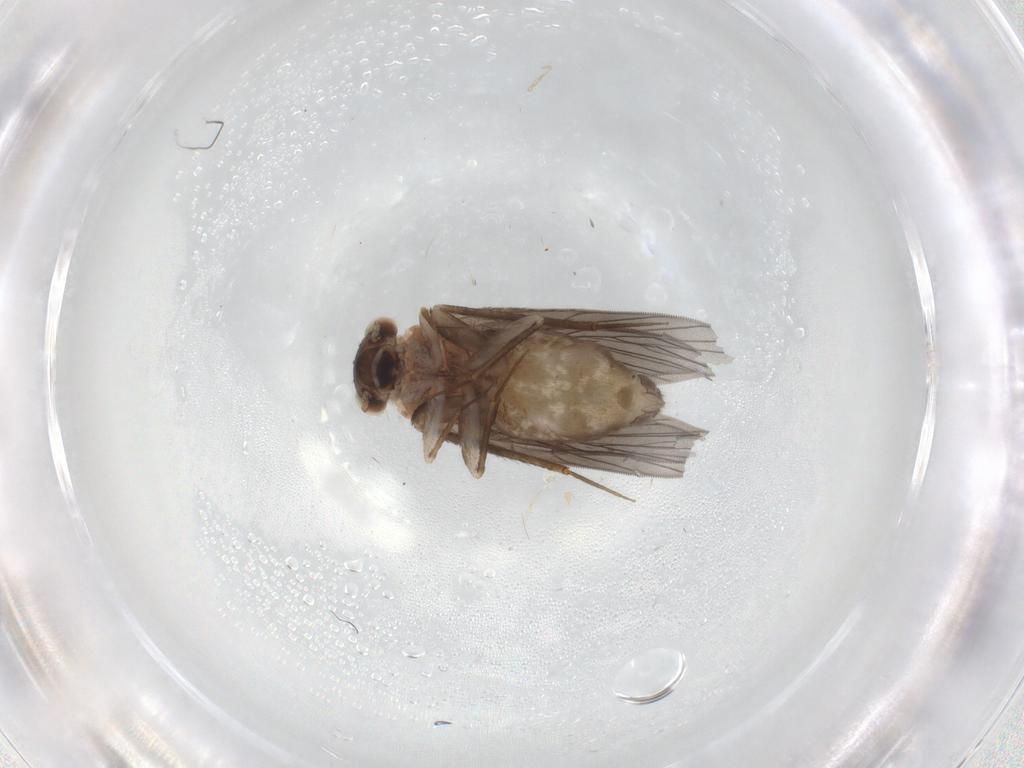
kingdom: Animalia
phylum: Arthropoda
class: Insecta
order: Psocodea
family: Lepidopsocidae
